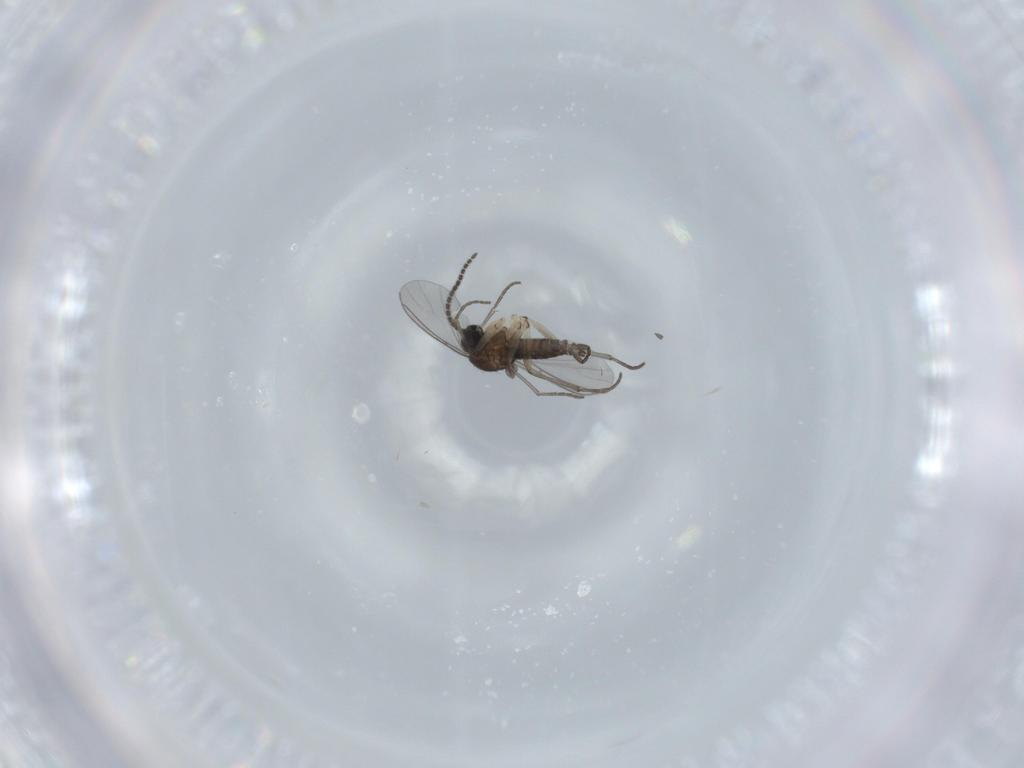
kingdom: Animalia
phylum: Arthropoda
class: Insecta
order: Diptera
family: Sciaridae
